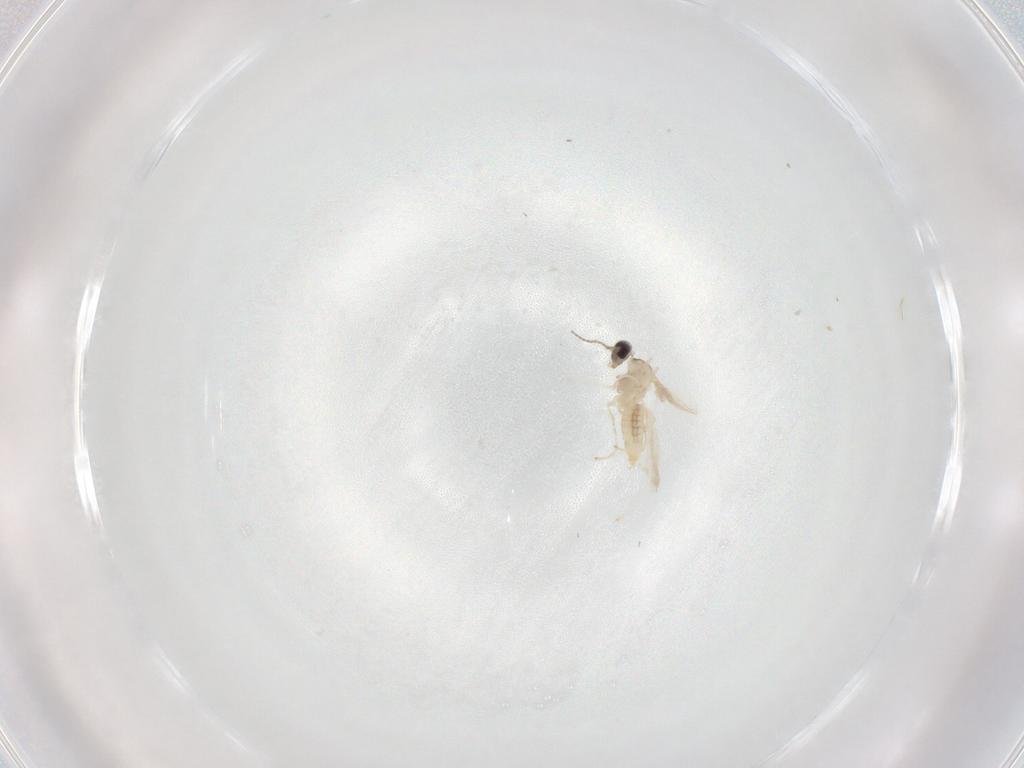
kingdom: Animalia
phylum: Arthropoda
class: Insecta
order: Diptera
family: Cecidomyiidae
